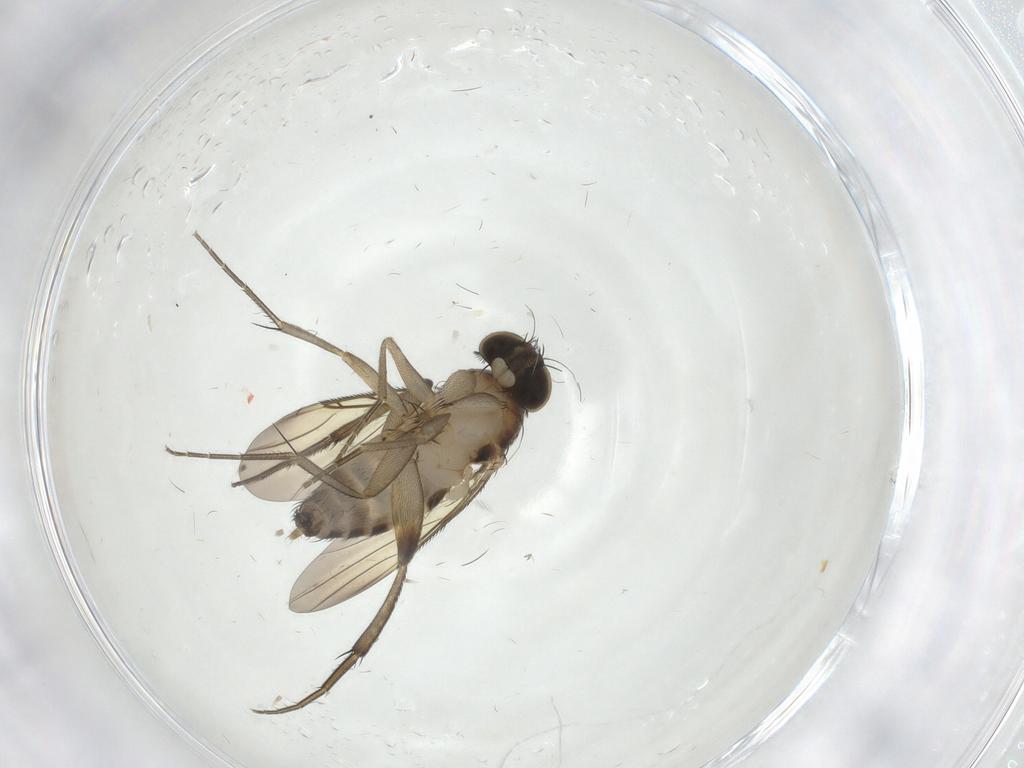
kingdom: Animalia
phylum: Arthropoda
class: Insecta
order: Diptera
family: Phoridae
